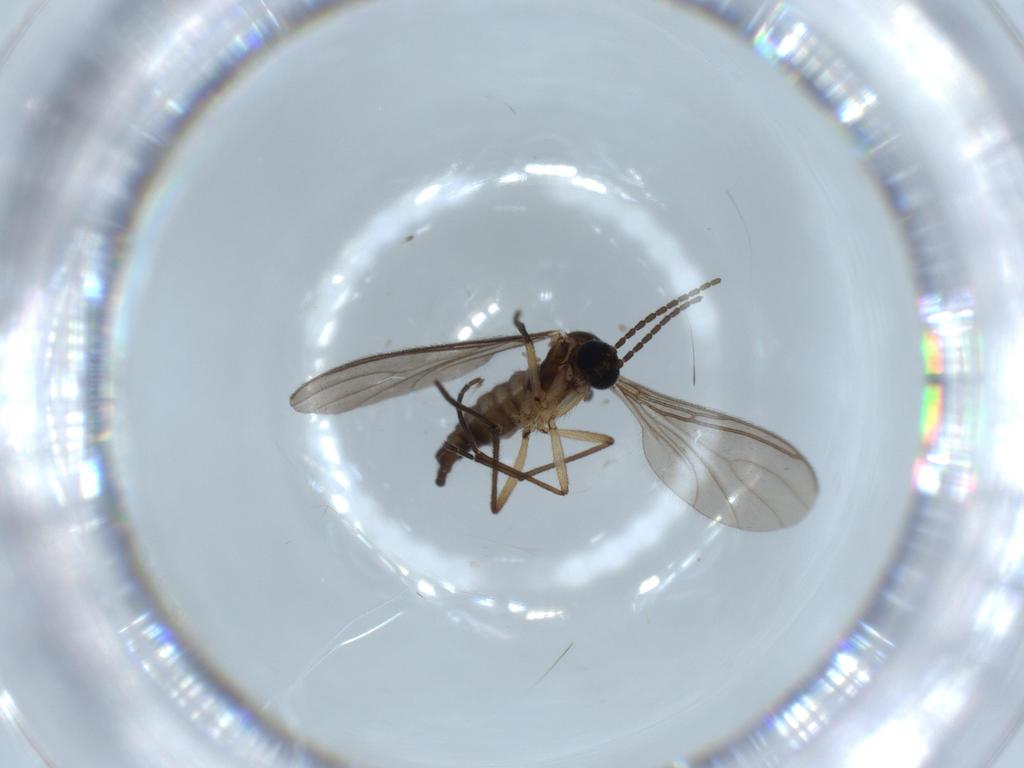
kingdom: Animalia
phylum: Arthropoda
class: Insecta
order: Diptera
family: Sciaridae
